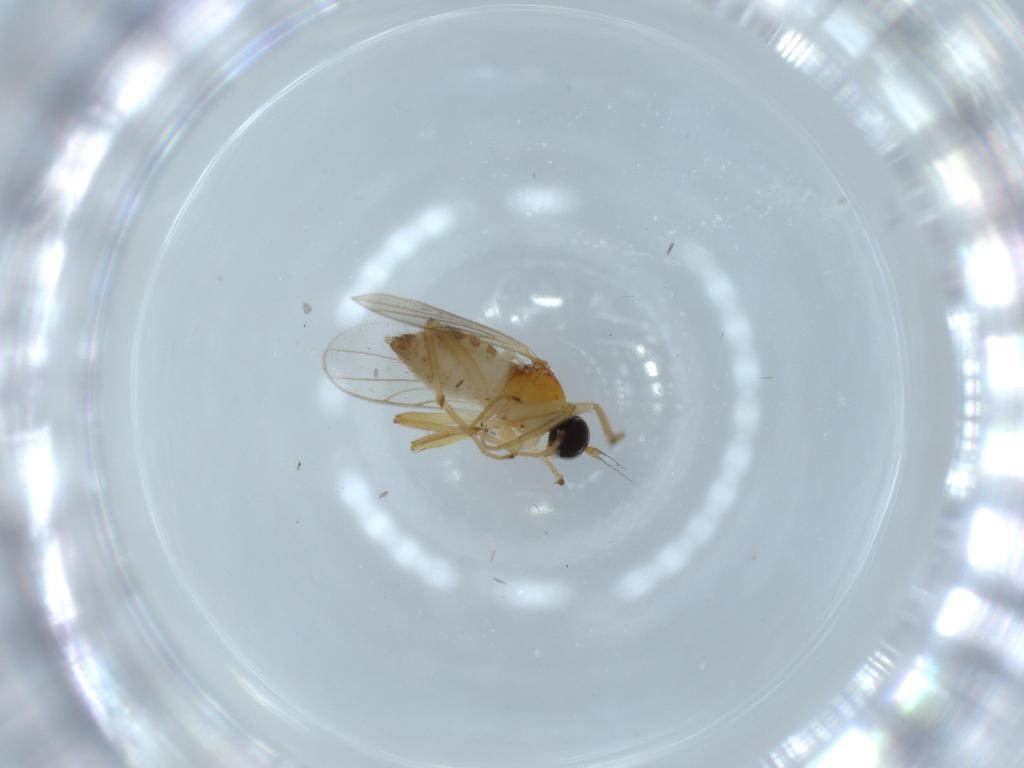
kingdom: Animalia
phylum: Arthropoda
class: Insecta
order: Diptera
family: Hybotidae
